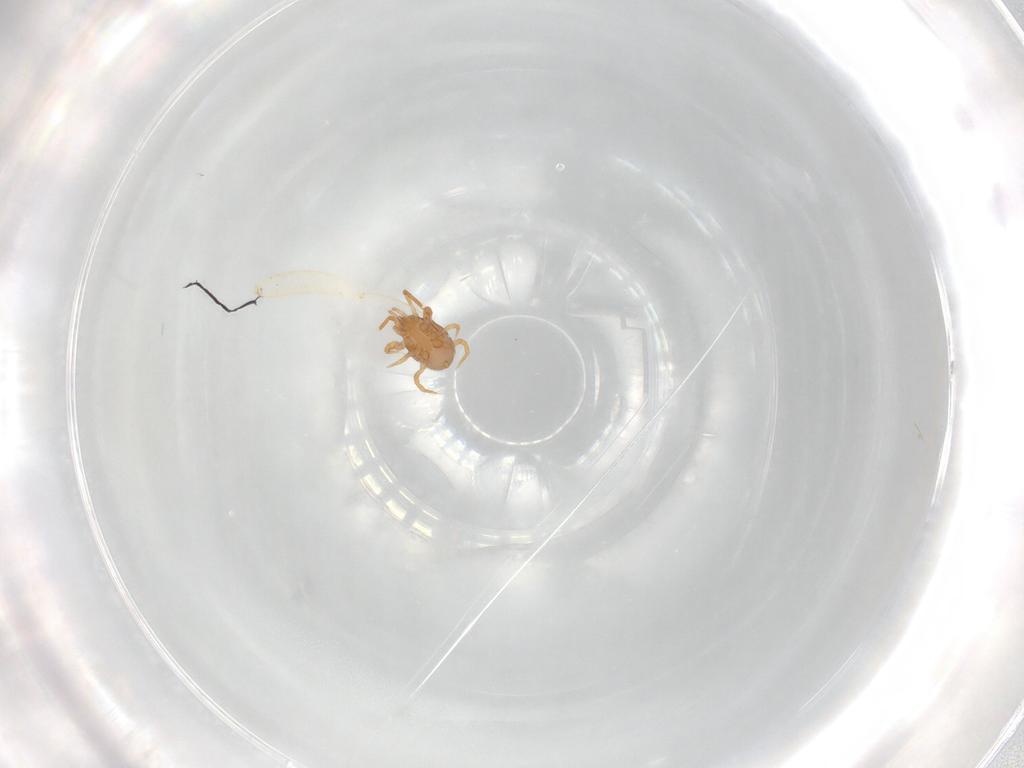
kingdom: Animalia
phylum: Arthropoda
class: Arachnida
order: Mesostigmata
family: Parasitidae
